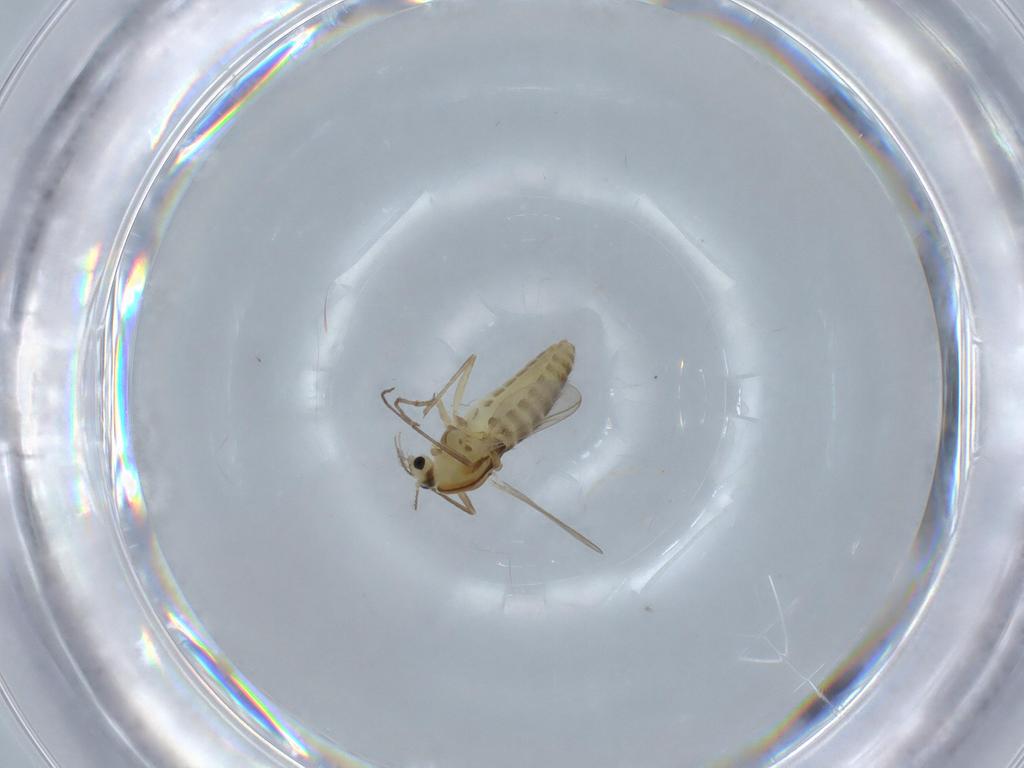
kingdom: Animalia
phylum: Arthropoda
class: Insecta
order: Diptera
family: Chironomidae
